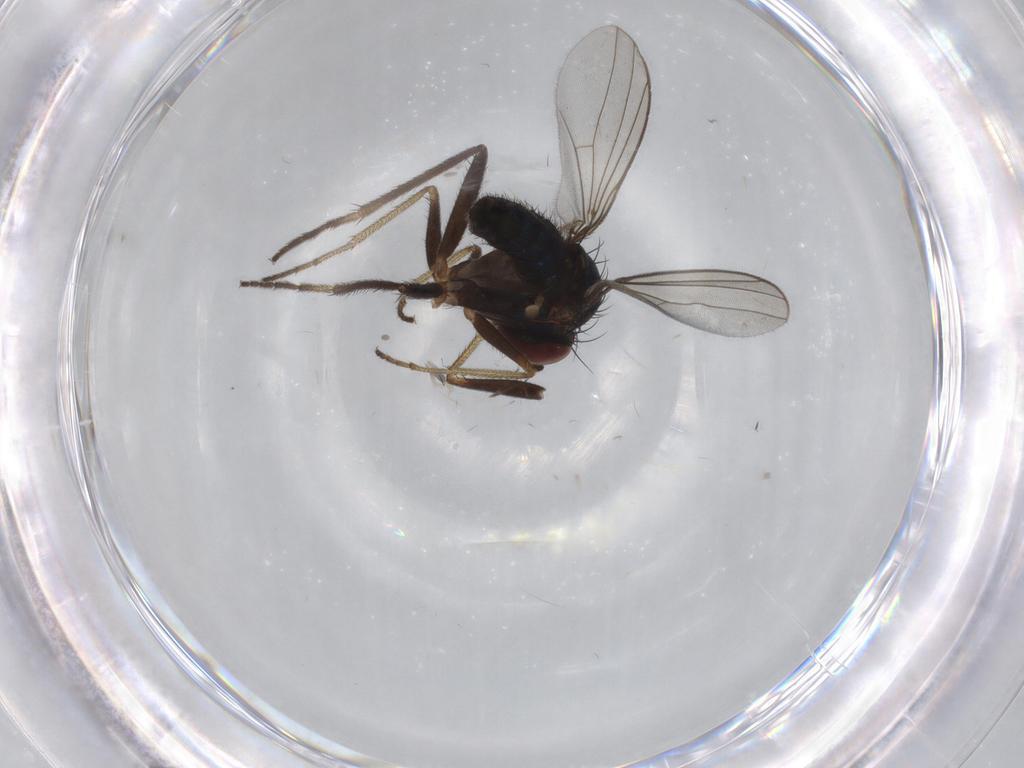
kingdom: Animalia
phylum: Arthropoda
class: Insecta
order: Diptera
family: Dolichopodidae
